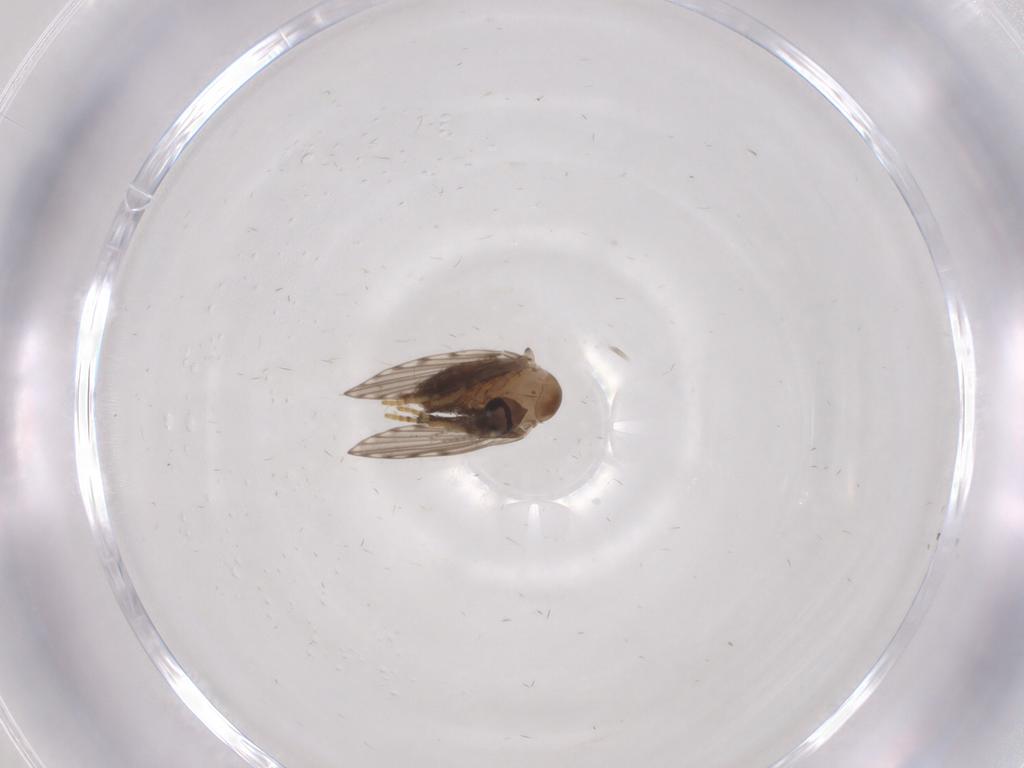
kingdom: Animalia
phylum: Arthropoda
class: Insecta
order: Diptera
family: Psychodidae
